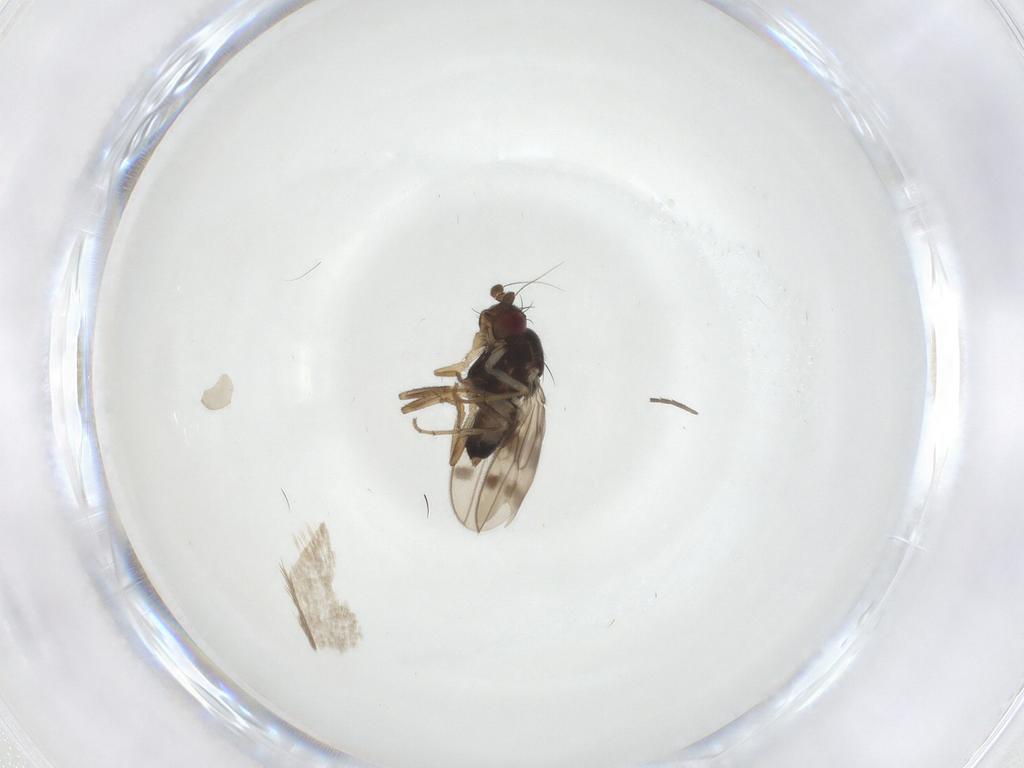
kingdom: Animalia
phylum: Arthropoda
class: Insecta
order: Diptera
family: Sphaeroceridae
